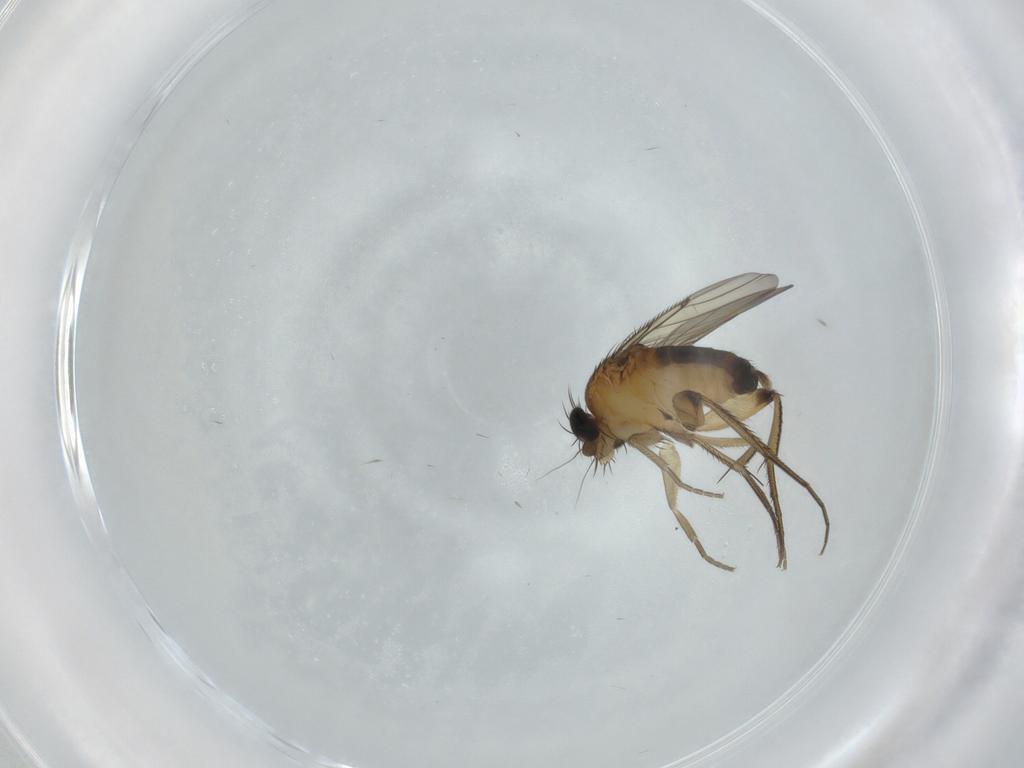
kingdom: Animalia
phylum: Arthropoda
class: Insecta
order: Diptera
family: Phoridae
